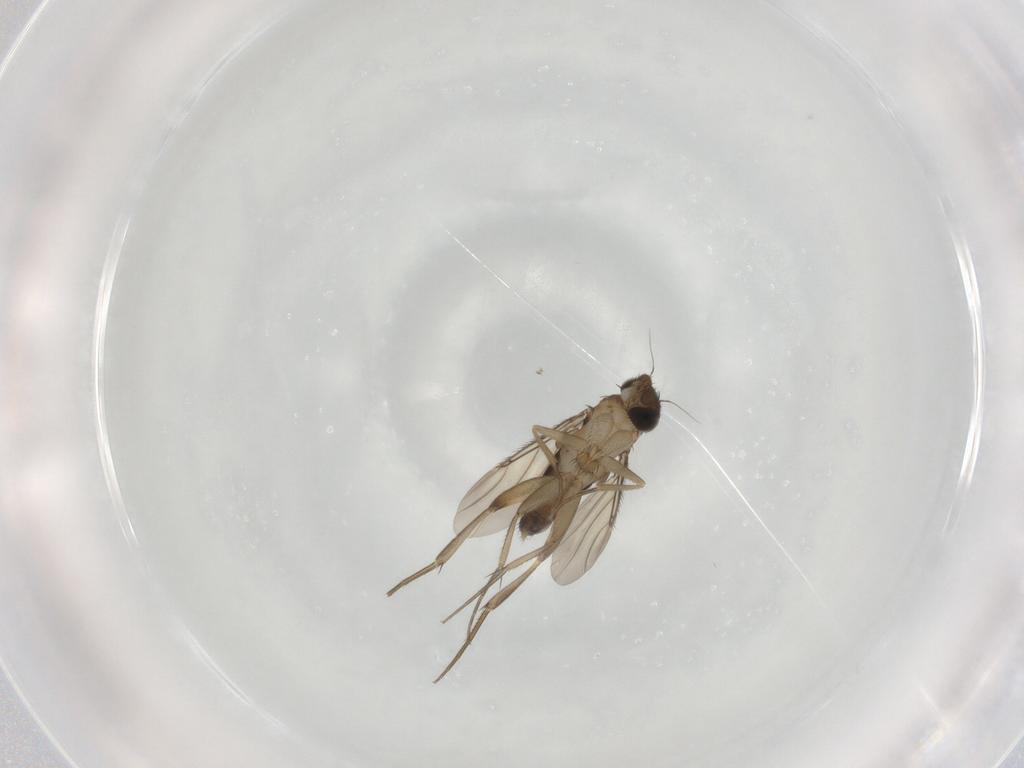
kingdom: Animalia
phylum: Arthropoda
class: Insecta
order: Diptera
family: Phoridae
